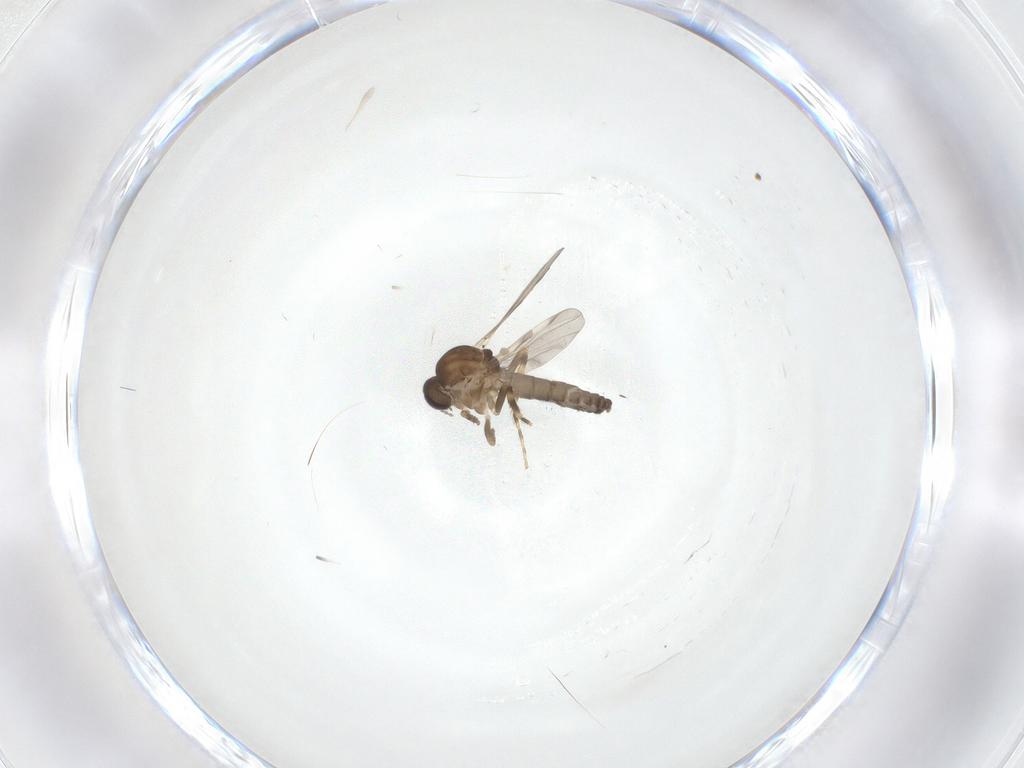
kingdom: Animalia
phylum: Arthropoda
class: Insecta
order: Diptera
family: Ceratopogonidae
